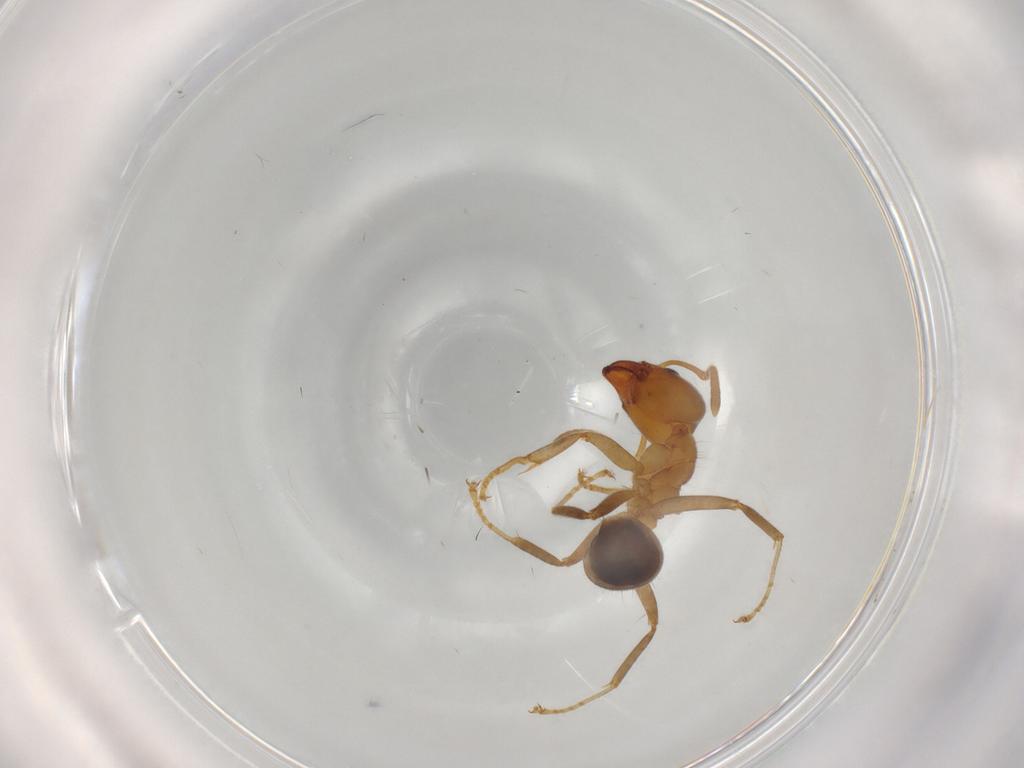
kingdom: Animalia
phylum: Arthropoda
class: Insecta
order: Hymenoptera
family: Formicidae
